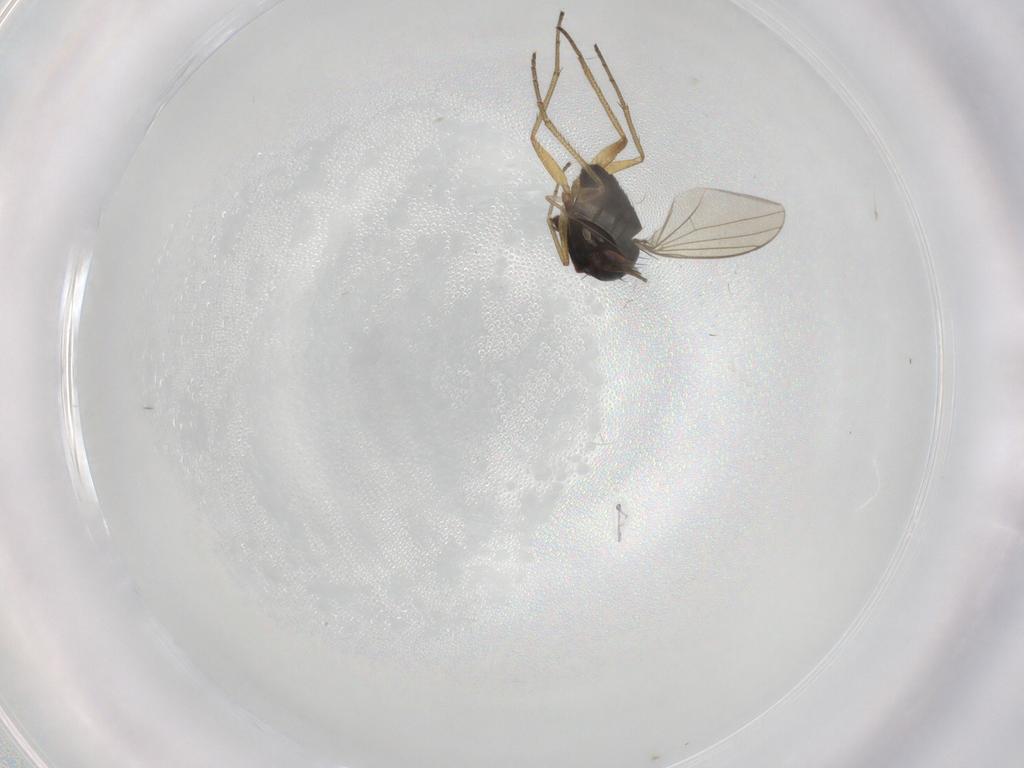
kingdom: Animalia
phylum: Arthropoda
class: Insecta
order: Diptera
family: Dolichopodidae
